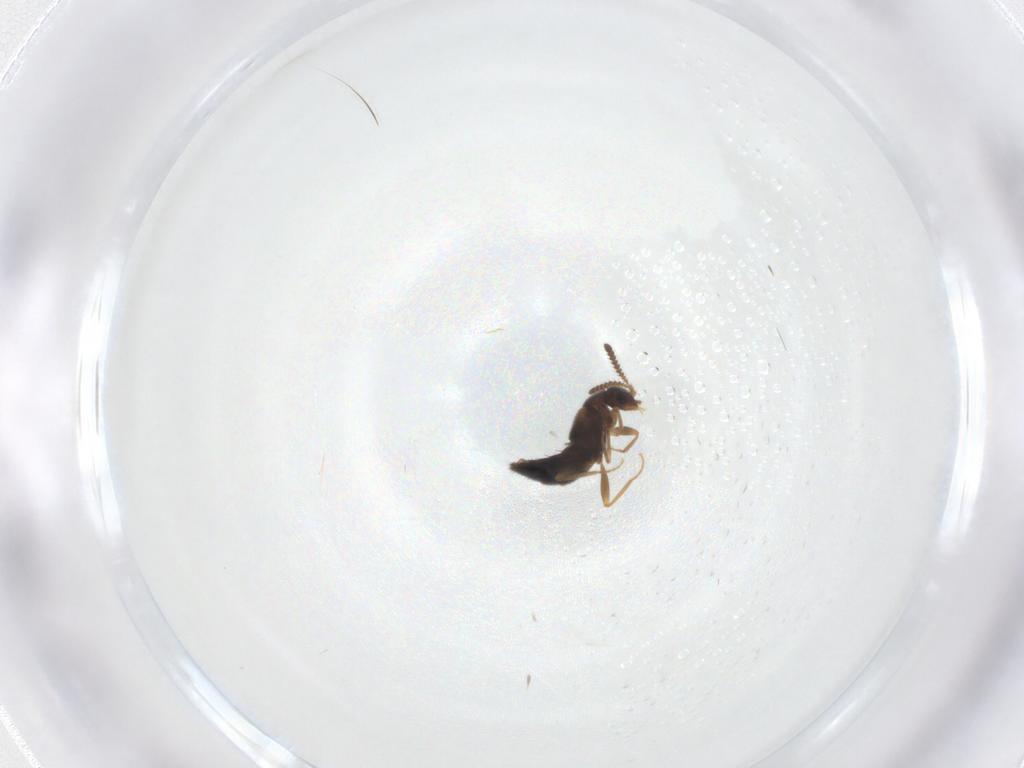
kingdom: Animalia
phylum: Arthropoda
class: Insecta
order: Coleoptera
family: Staphylinidae
